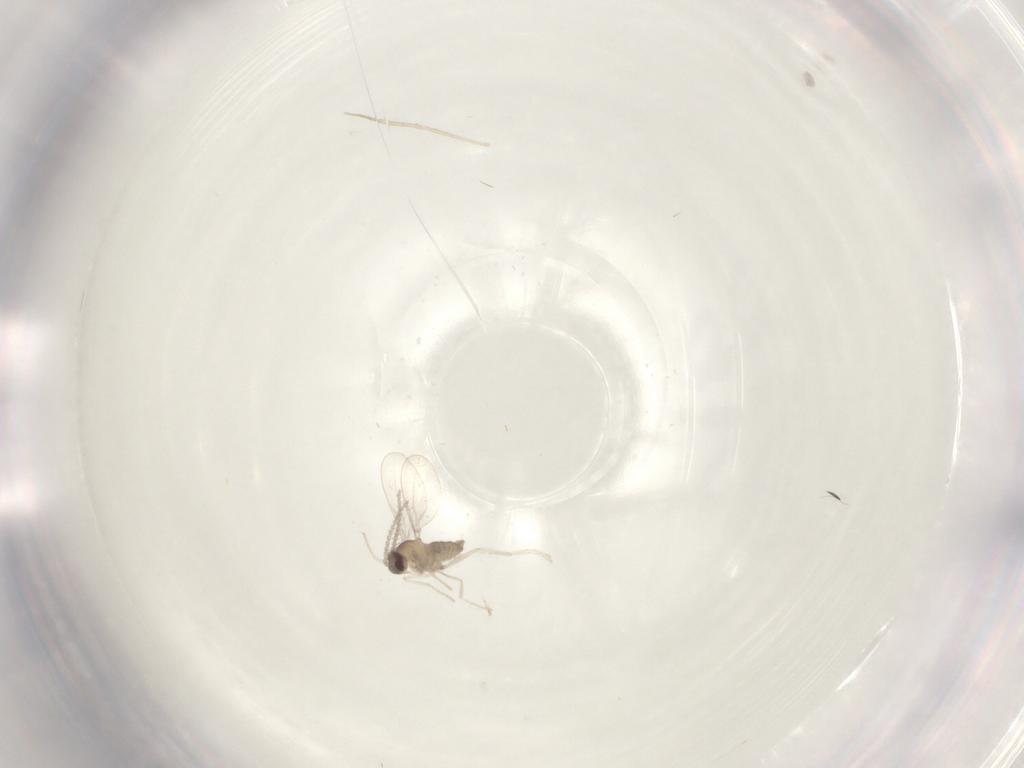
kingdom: Animalia
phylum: Arthropoda
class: Insecta
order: Diptera
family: Cecidomyiidae
